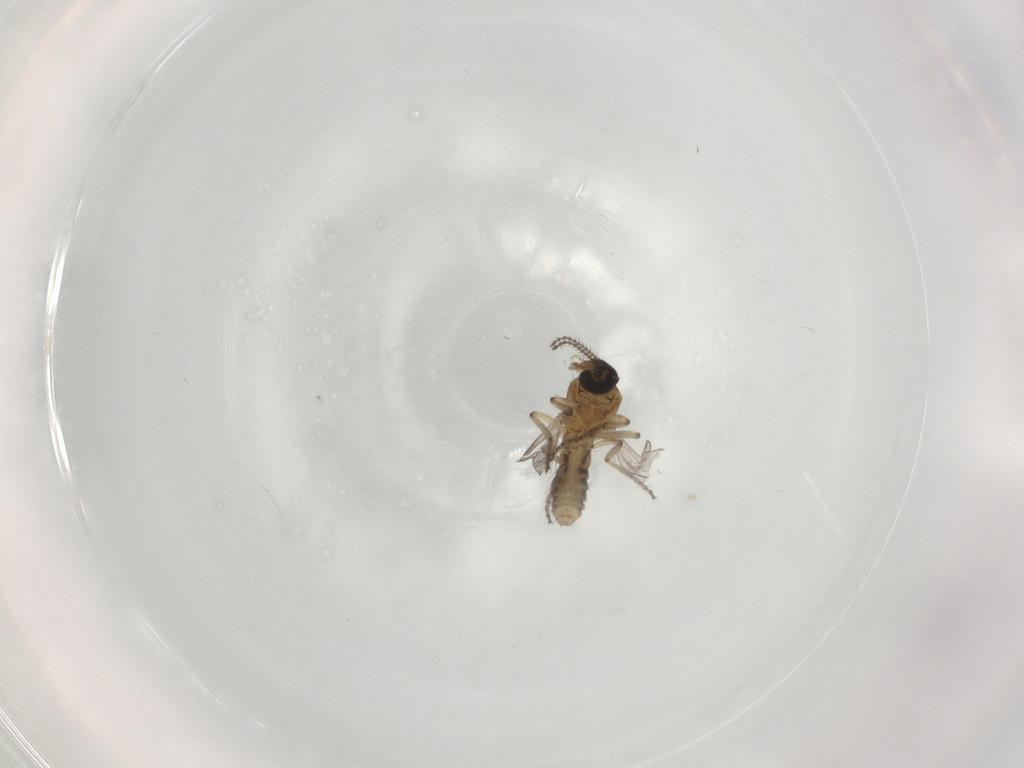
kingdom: Animalia
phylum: Arthropoda
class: Insecta
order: Diptera
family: Ceratopogonidae
